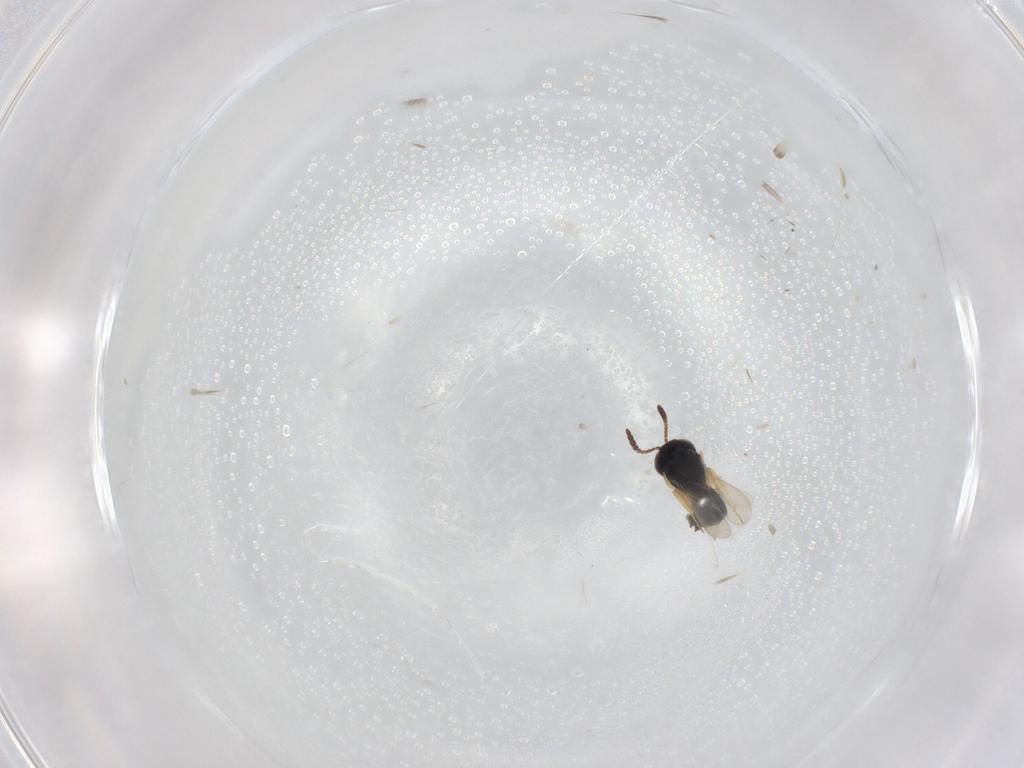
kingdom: Animalia
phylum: Arthropoda
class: Insecta
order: Hymenoptera
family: Scelionidae
